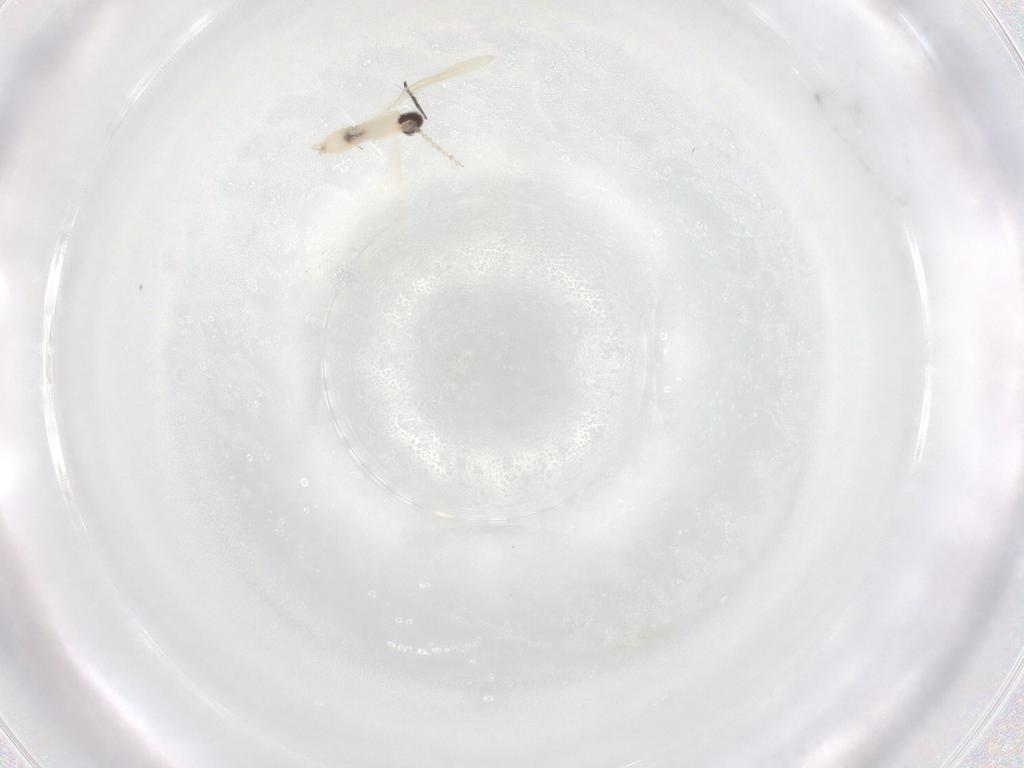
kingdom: Animalia
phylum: Arthropoda
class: Insecta
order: Diptera
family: Cecidomyiidae
